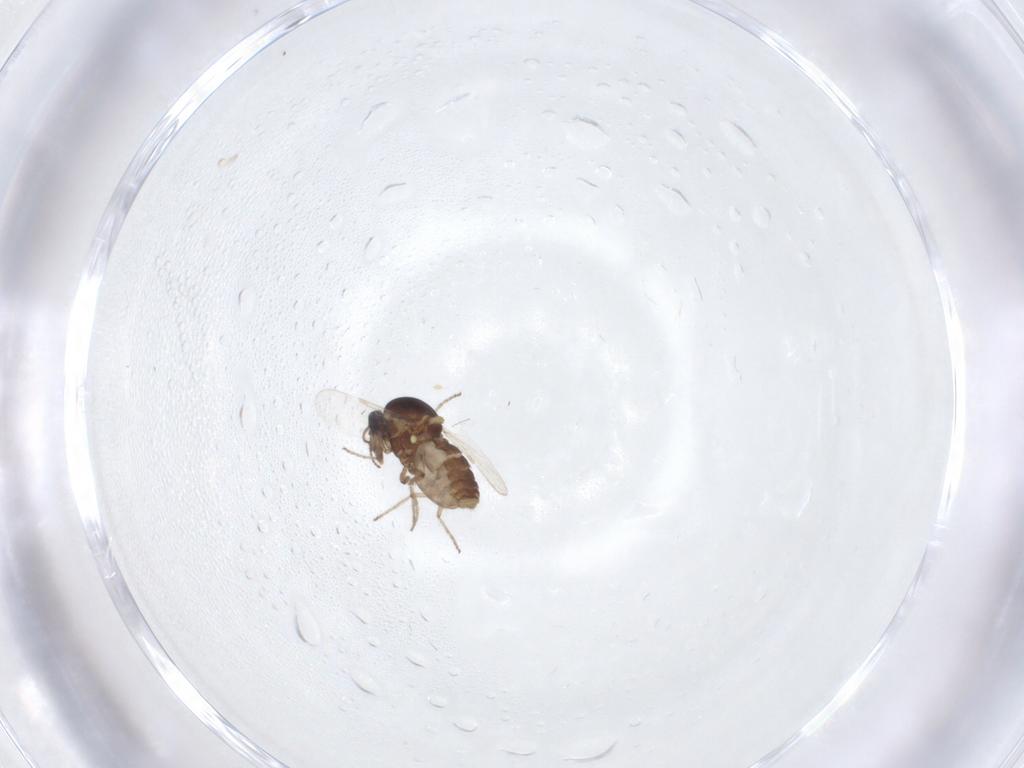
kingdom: Animalia
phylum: Arthropoda
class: Insecta
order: Diptera
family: Ceratopogonidae
